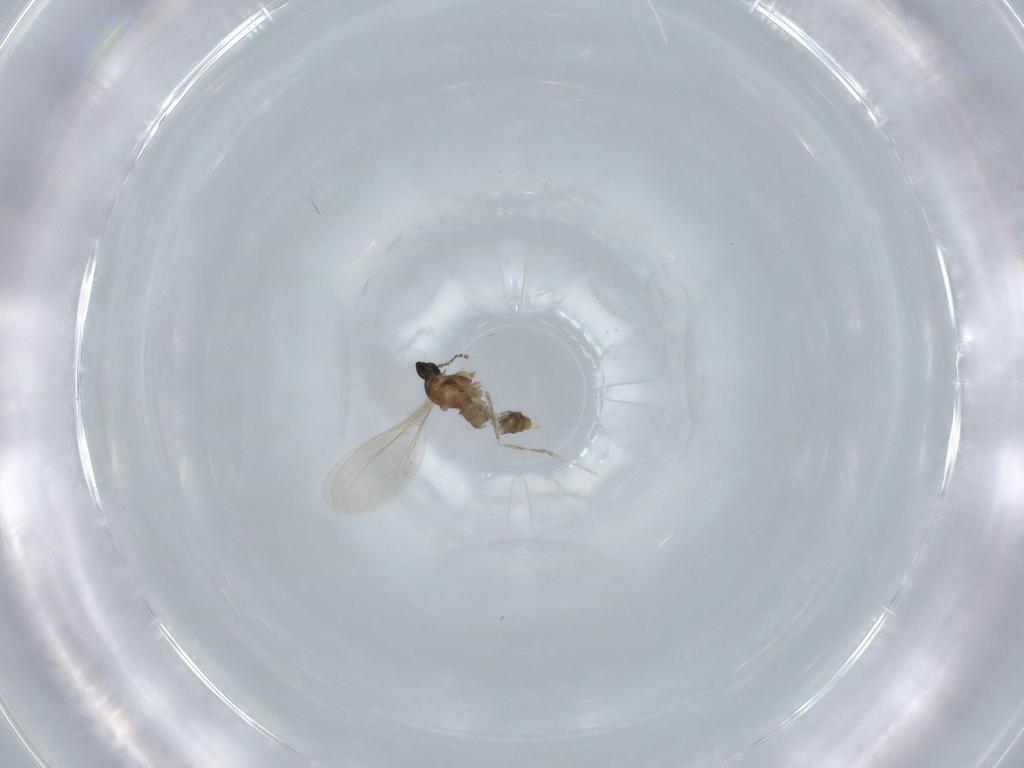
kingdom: Animalia
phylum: Arthropoda
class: Insecta
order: Diptera
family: Cecidomyiidae
